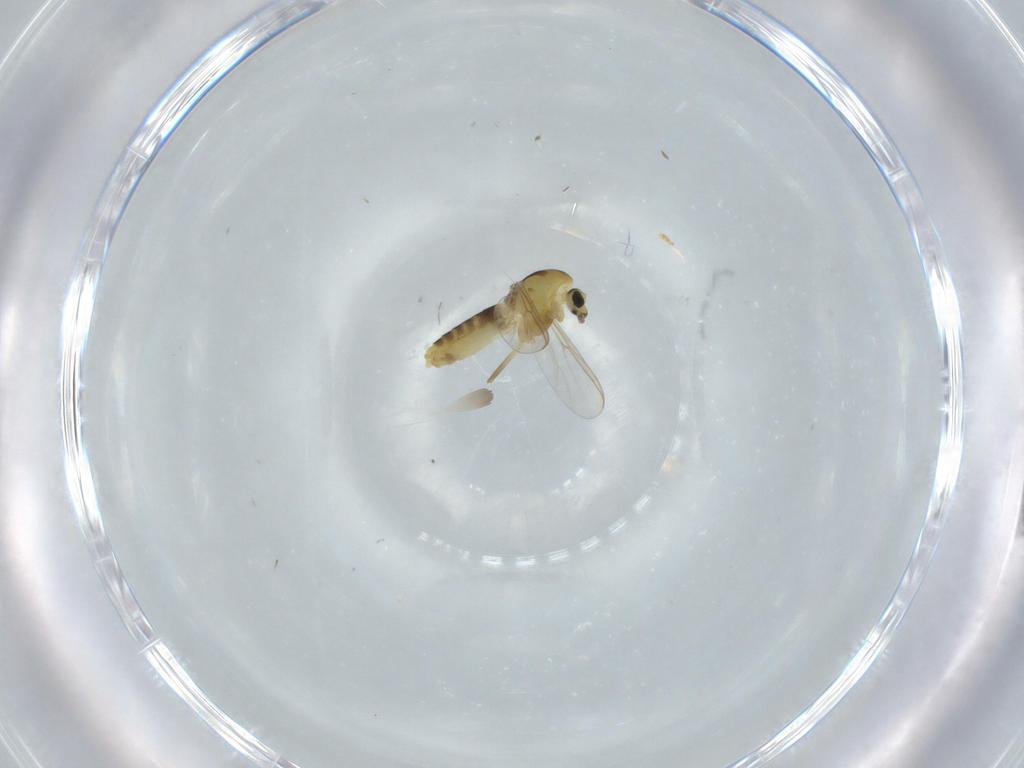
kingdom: Animalia
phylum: Arthropoda
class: Insecta
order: Diptera
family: Chironomidae
